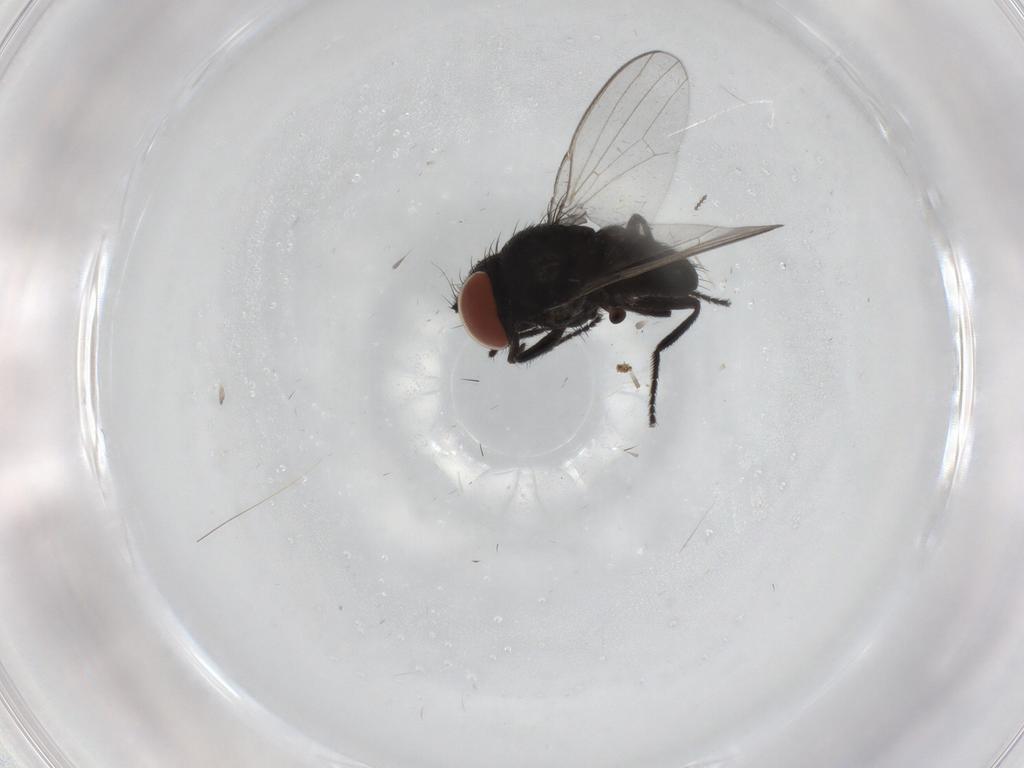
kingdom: Animalia
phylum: Arthropoda
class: Insecta
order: Diptera
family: Milichiidae
